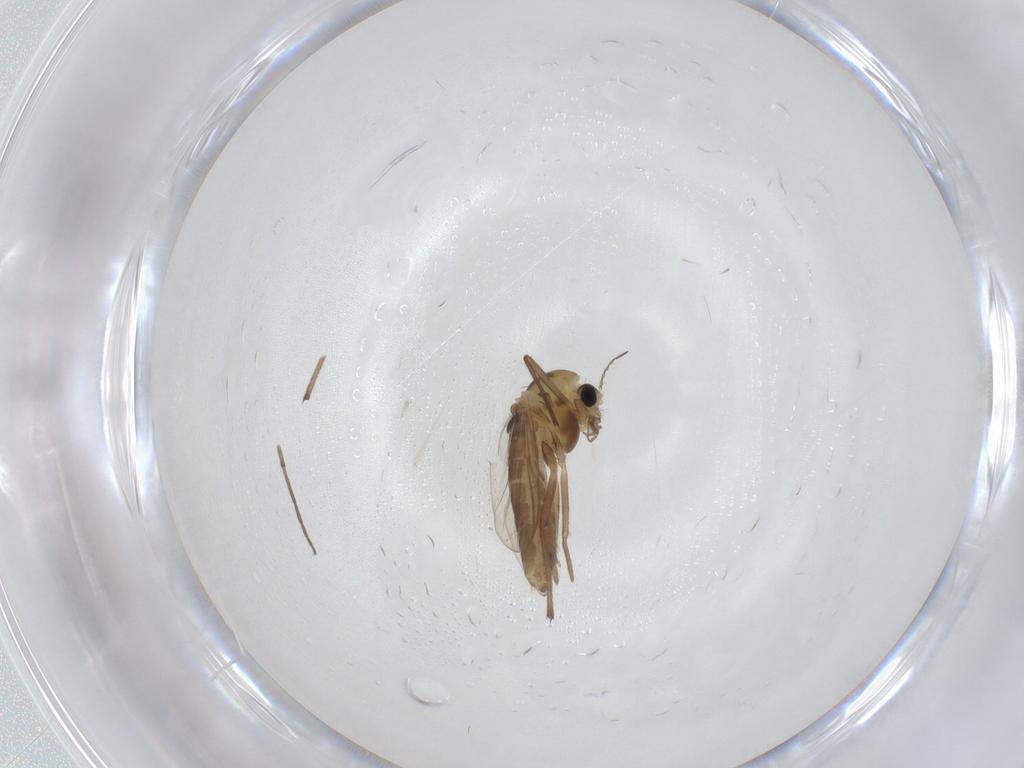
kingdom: Animalia
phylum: Arthropoda
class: Insecta
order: Diptera
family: Chironomidae
